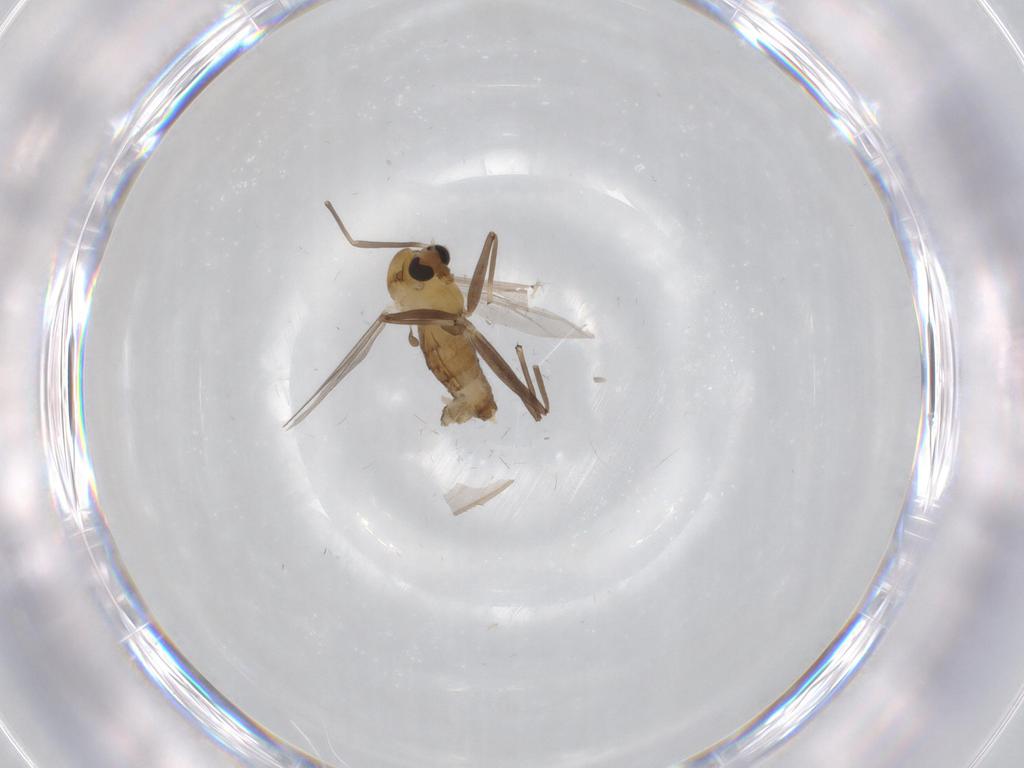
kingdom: Animalia
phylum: Arthropoda
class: Insecta
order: Diptera
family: Chironomidae
